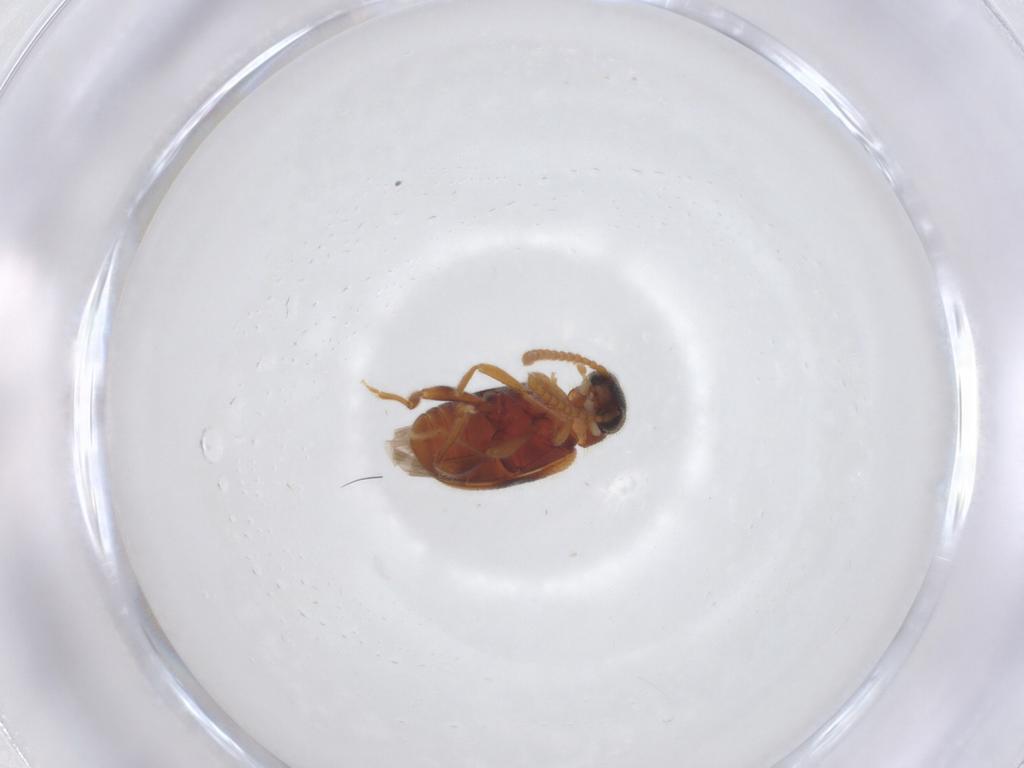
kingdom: Animalia
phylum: Arthropoda
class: Insecta
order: Coleoptera
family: Aderidae
